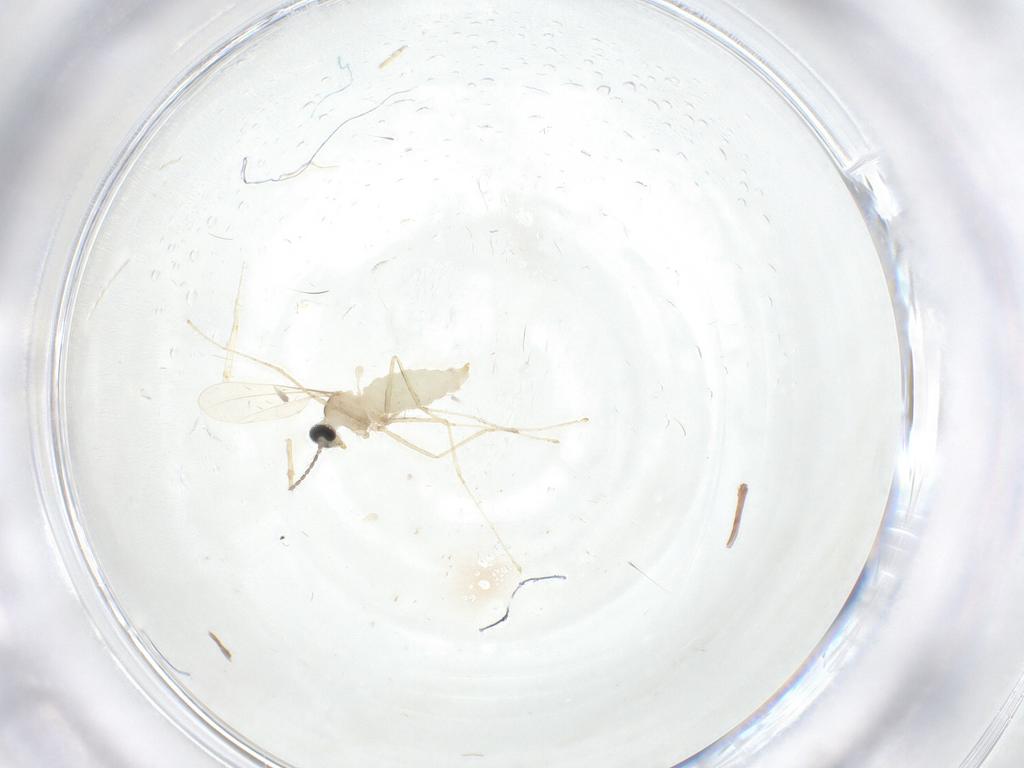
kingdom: Animalia
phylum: Arthropoda
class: Insecta
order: Diptera
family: Cecidomyiidae
